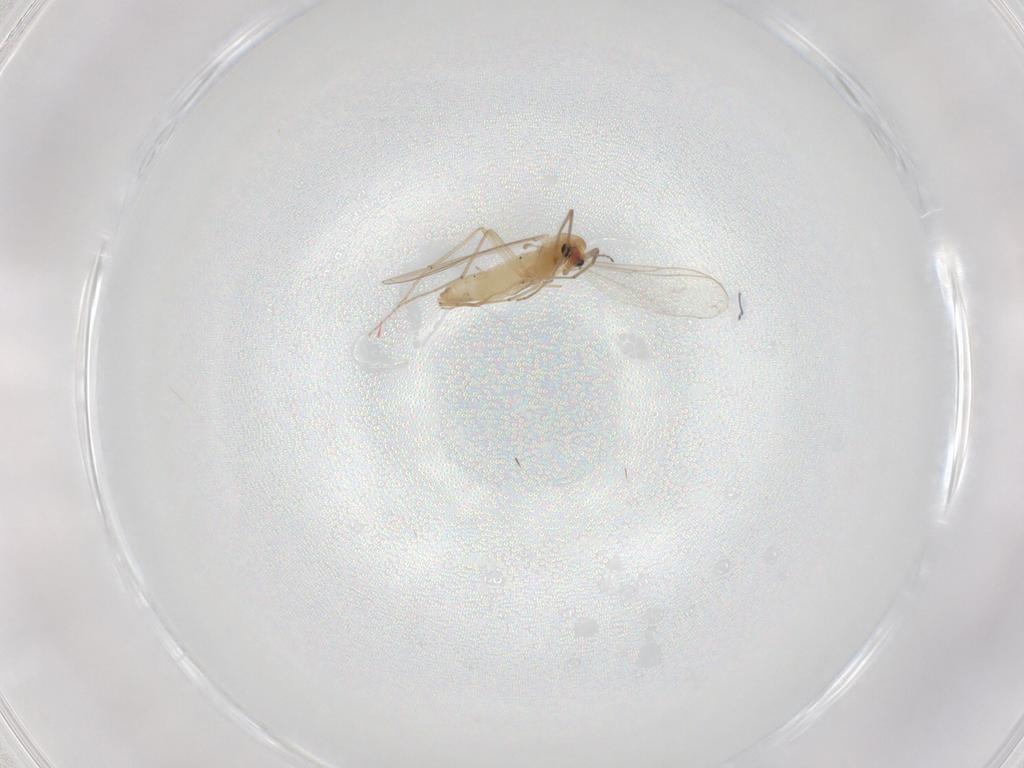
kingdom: Animalia
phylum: Arthropoda
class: Insecta
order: Diptera
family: Chironomidae
